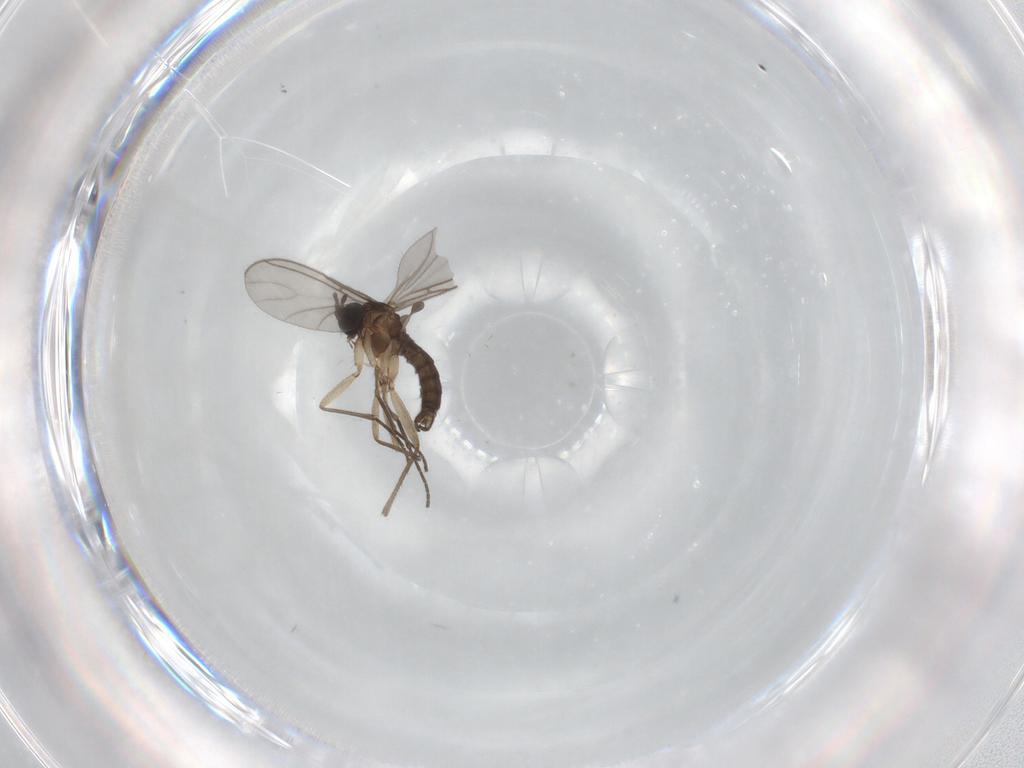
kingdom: Animalia
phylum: Arthropoda
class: Insecta
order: Diptera
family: Sciaridae
